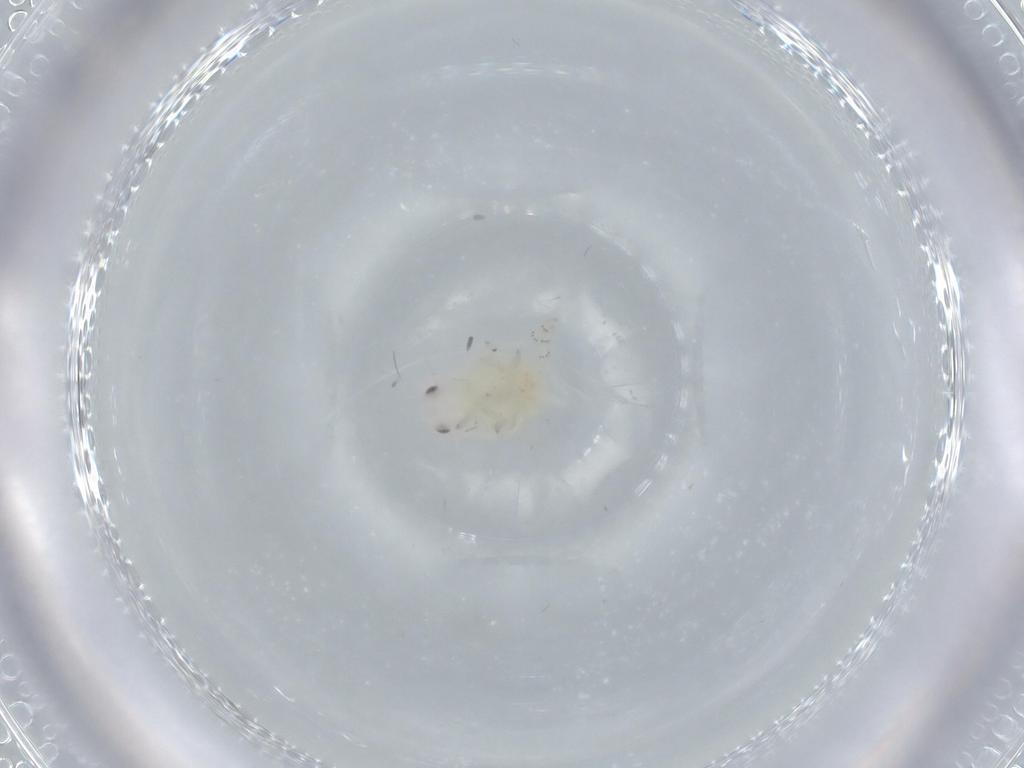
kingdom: Animalia
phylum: Arthropoda
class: Insecta
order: Hemiptera
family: Flatidae
